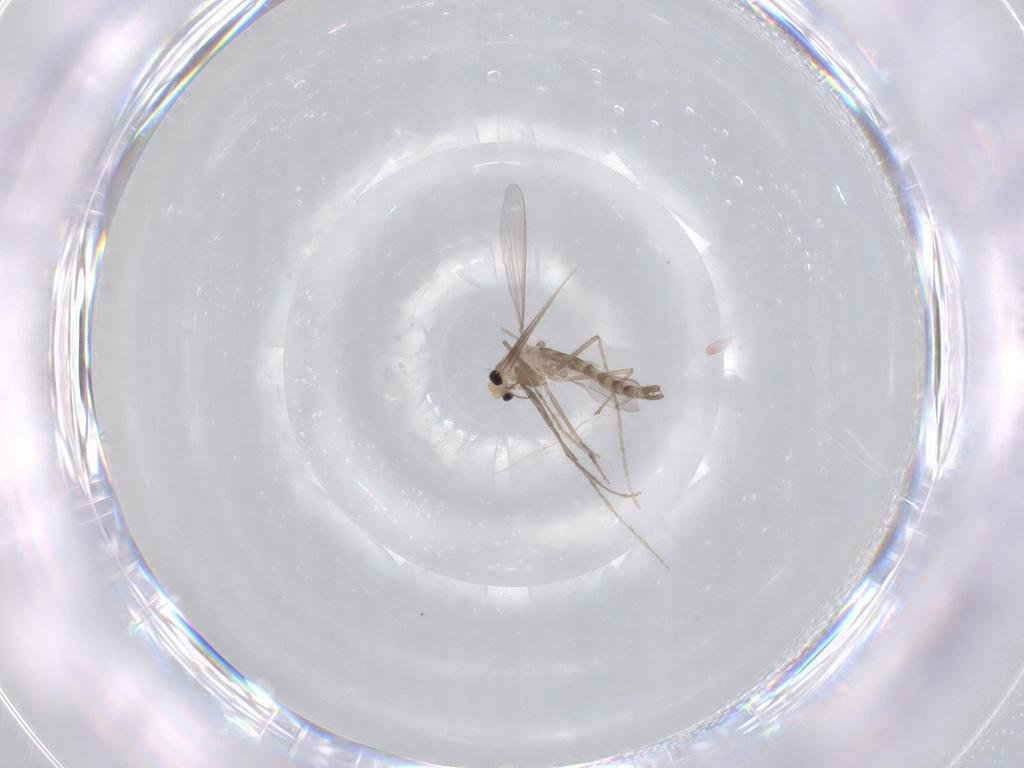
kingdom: Animalia
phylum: Arthropoda
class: Insecta
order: Diptera
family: Chironomidae
